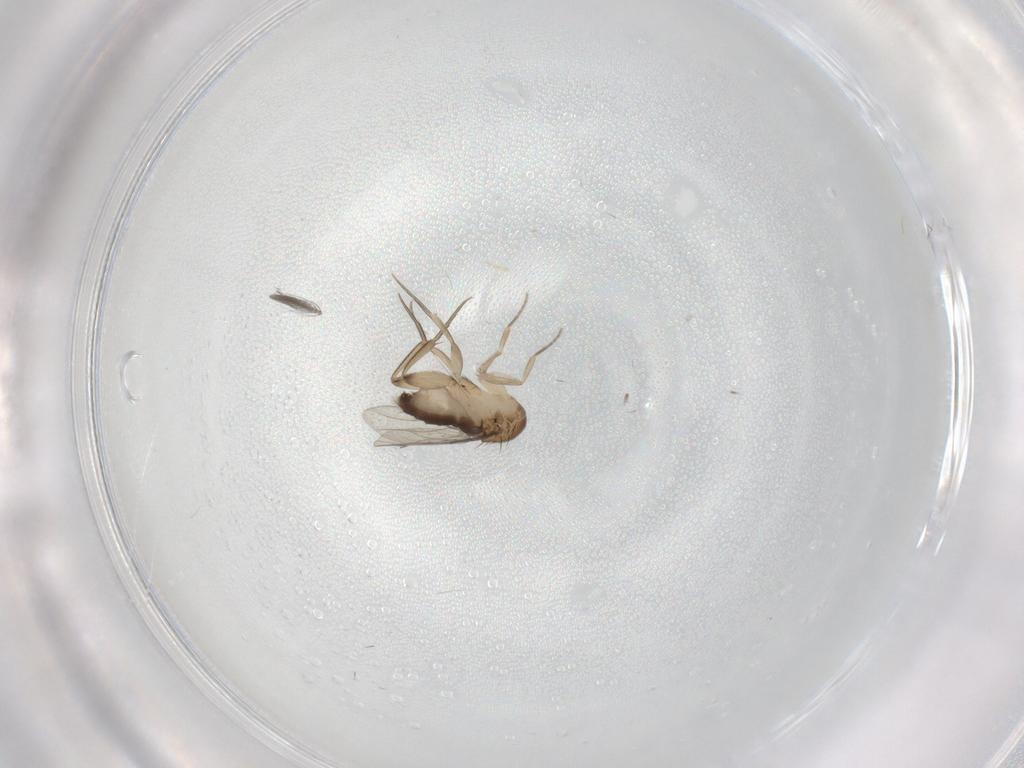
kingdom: Animalia
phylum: Arthropoda
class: Insecta
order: Diptera
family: Phoridae
